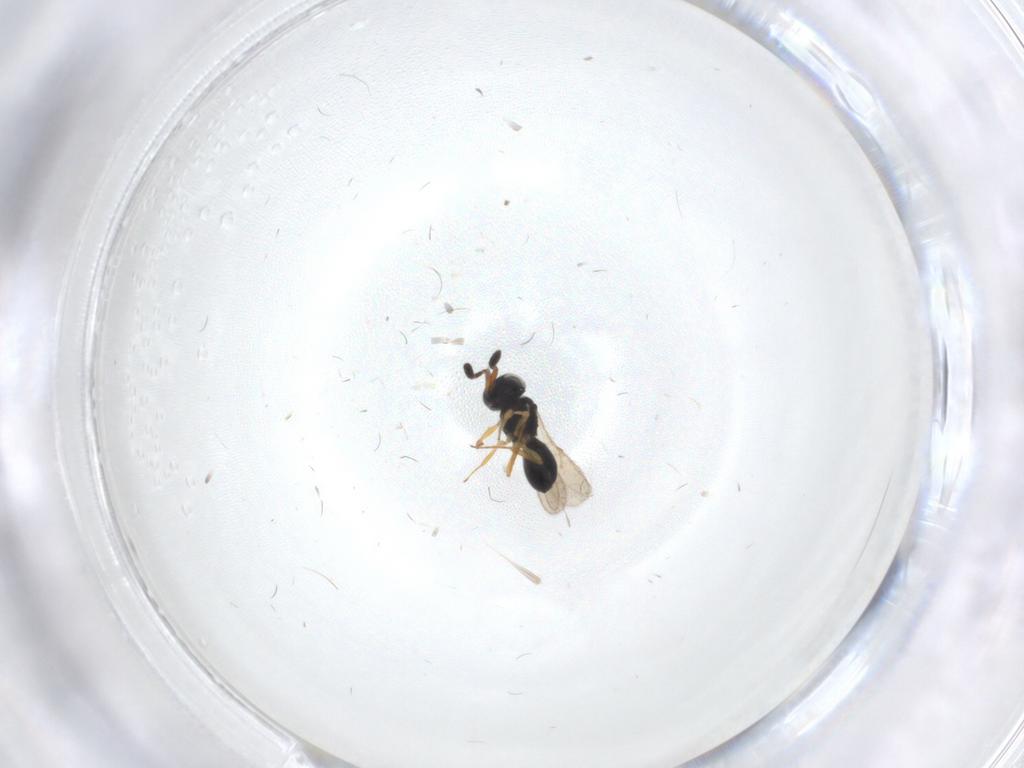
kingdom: Animalia
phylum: Arthropoda
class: Insecta
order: Hymenoptera
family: Scelionidae
